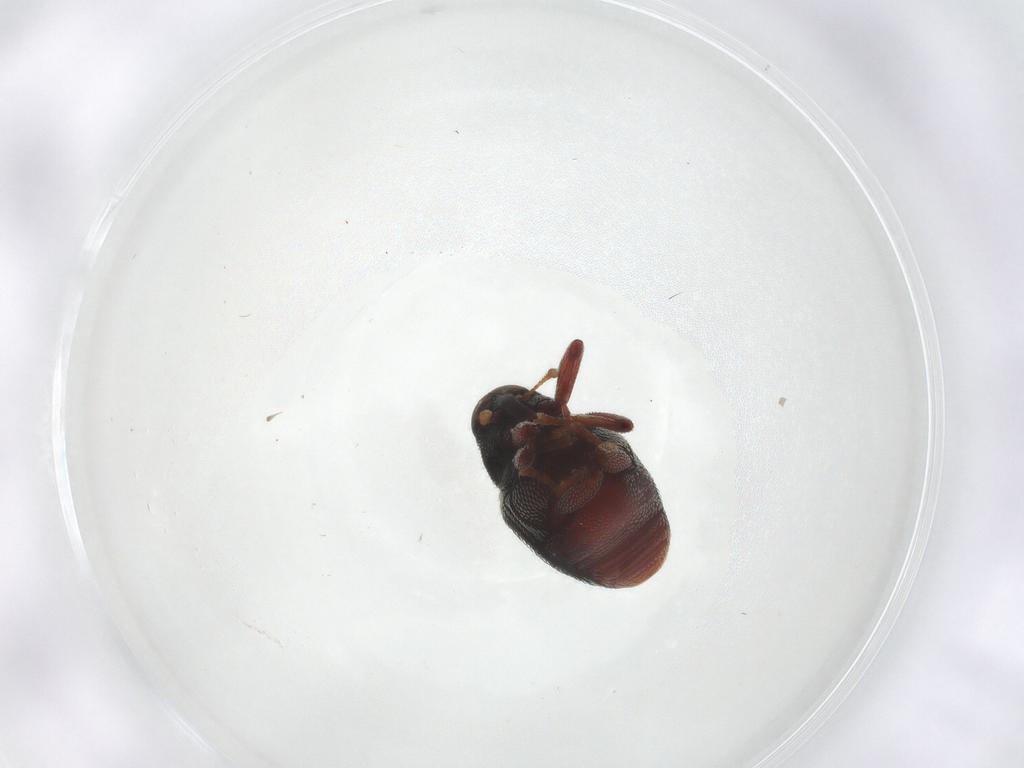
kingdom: Animalia
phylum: Arthropoda
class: Insecta
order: Coleoptera
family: Curculionidae
